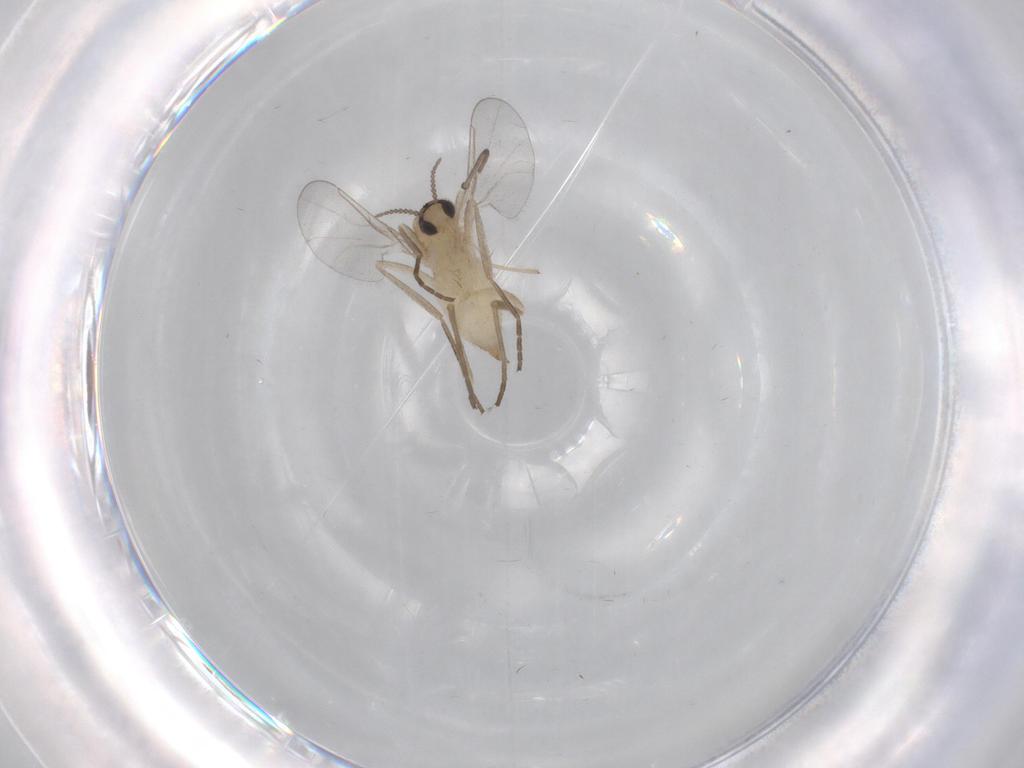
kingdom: Animalia
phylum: Arthropoda
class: Insecta
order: Diptera
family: Cecidomyiidae
